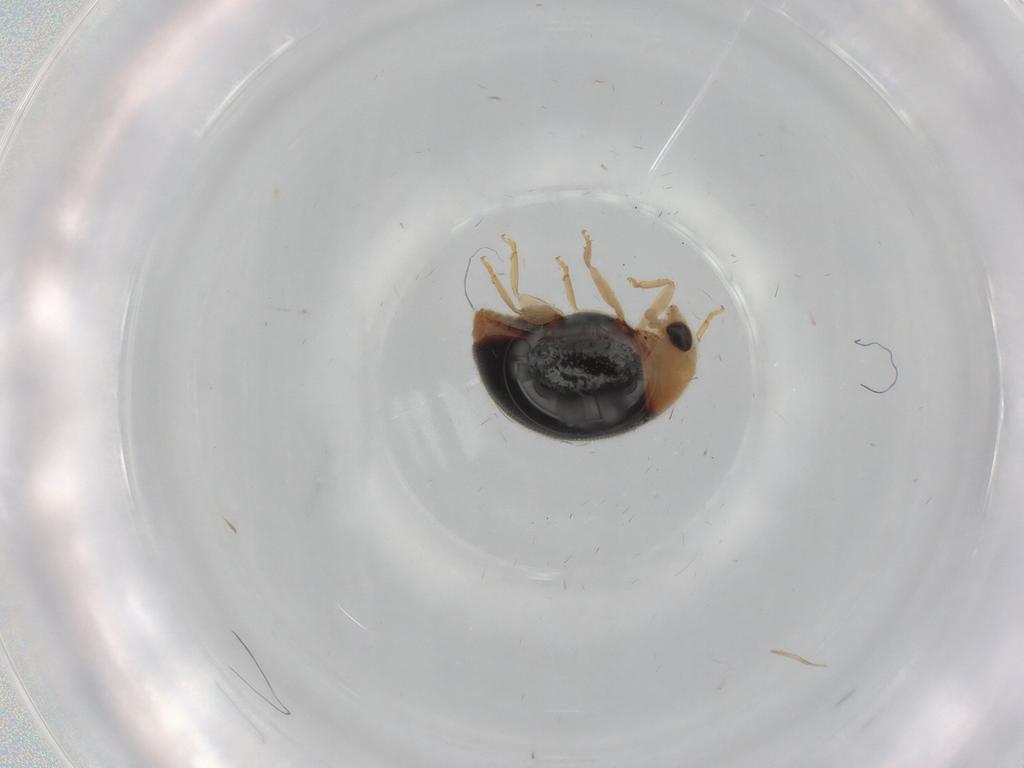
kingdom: Animalia
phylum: Arthropoda
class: Insecta
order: Coleoptera
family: Coccinellidae
